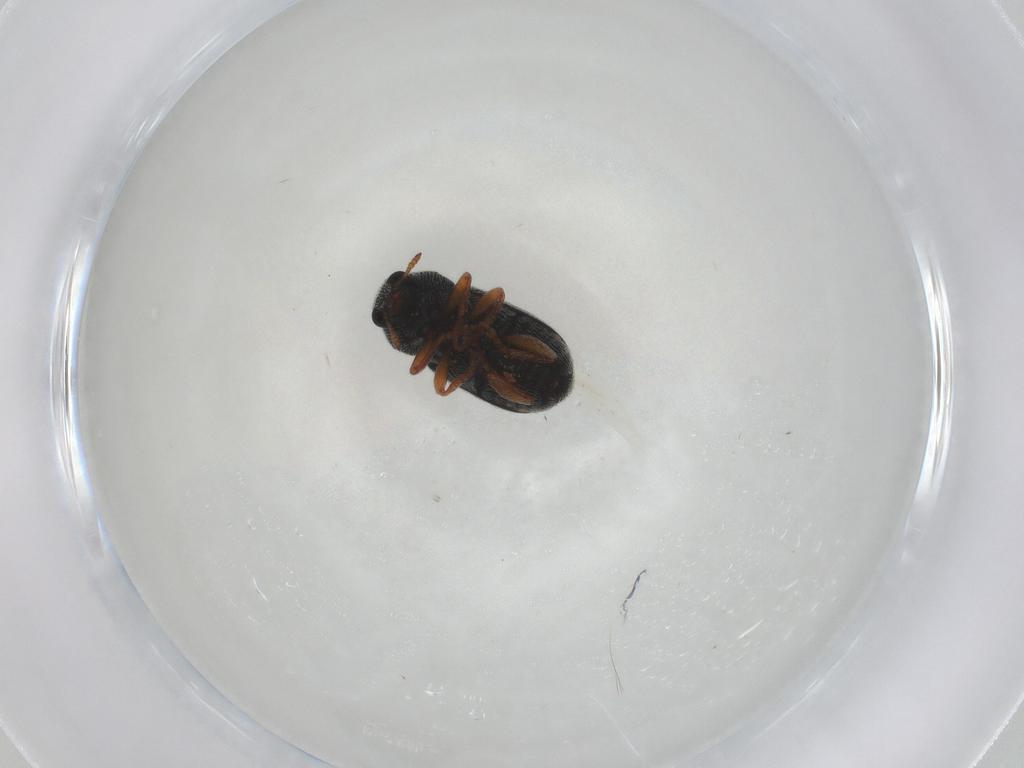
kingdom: Animalia
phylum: Arthropoda
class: Insecta
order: Coleoptera
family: Anthribidae
